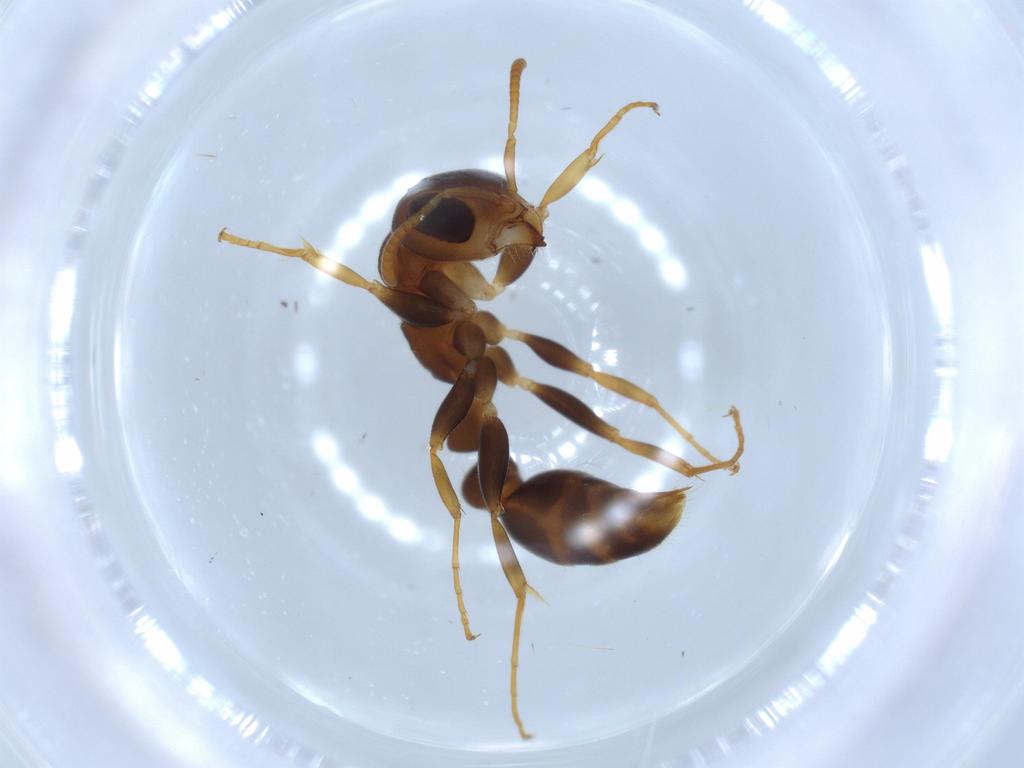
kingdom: Animalia
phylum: Arthropoda
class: Insecta
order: Hymenoptera
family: Formicidae
